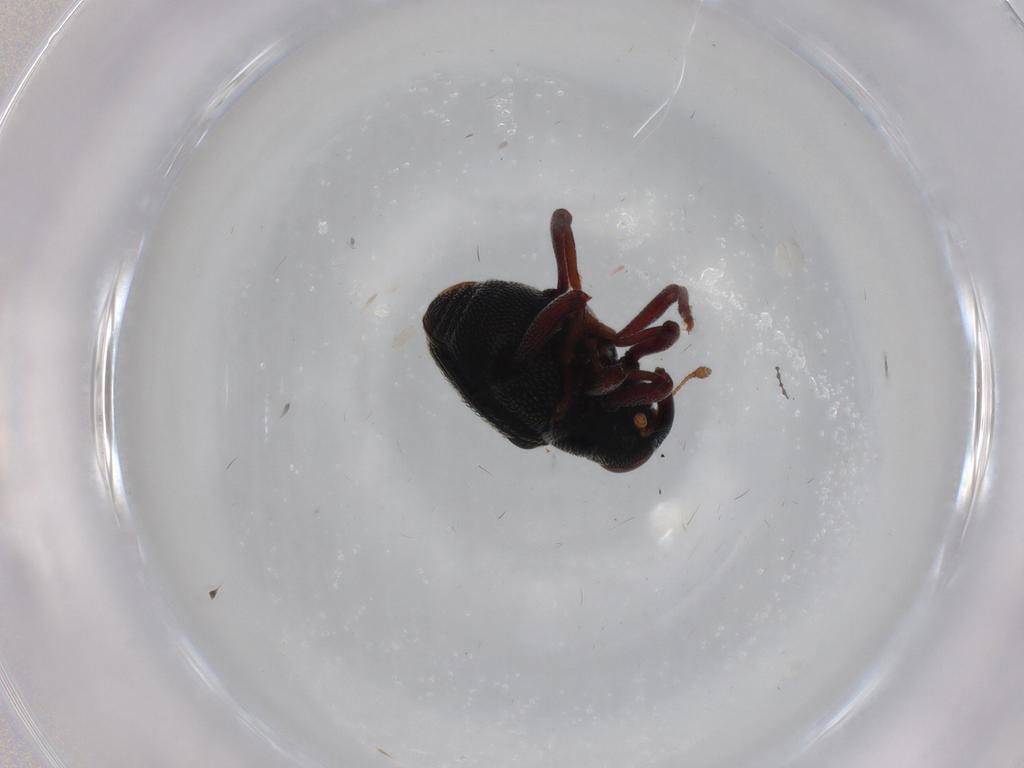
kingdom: Animalia
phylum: Arthropoda
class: Insecta
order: Coleoptera
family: Curculionidae
